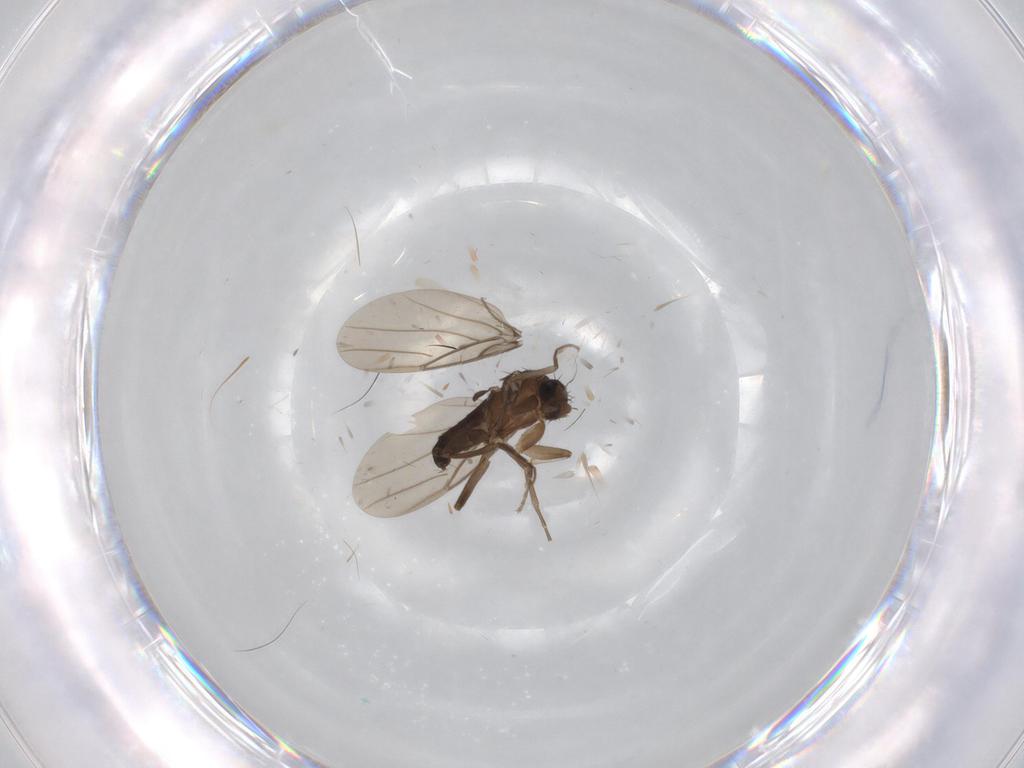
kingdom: Animalia
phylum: Arthropoda
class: Insecta
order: Diptera
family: Phoridae
